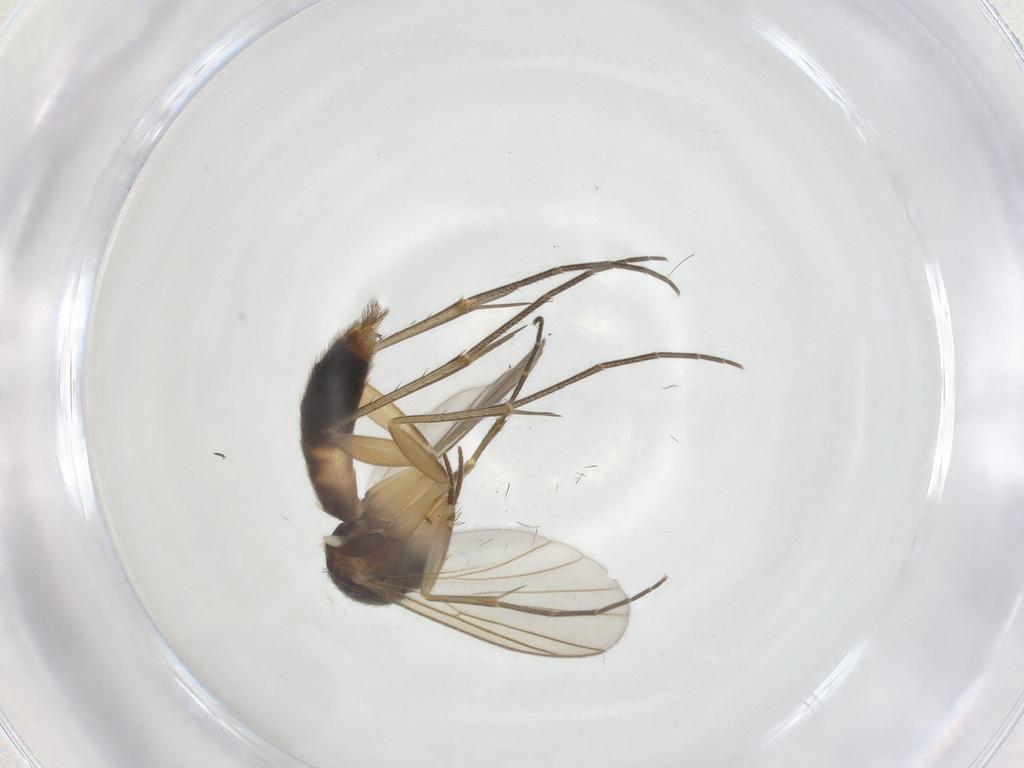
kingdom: Animalia
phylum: Arthropoda
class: Insecta
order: Diptera
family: Mycetophilidae
